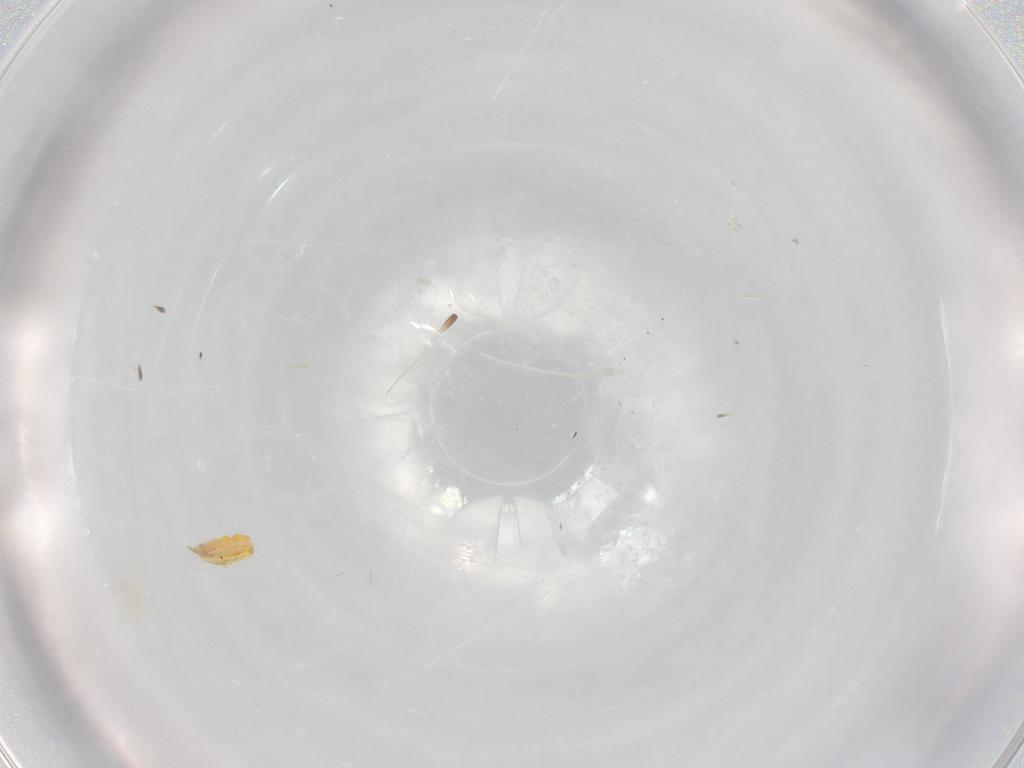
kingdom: Animalia
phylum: Arthropoda
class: Insecta
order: Lepidoptera
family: Pyralidae
